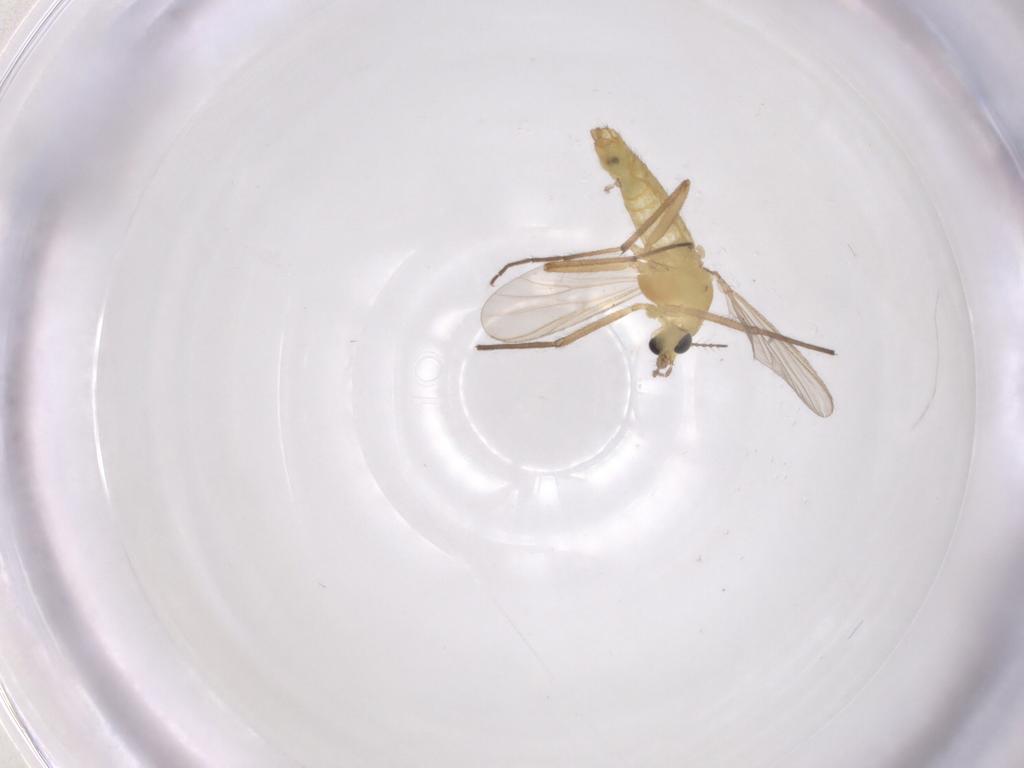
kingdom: Animalia
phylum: Arthropoda
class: Insecta
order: Diptera
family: Chironomidae
